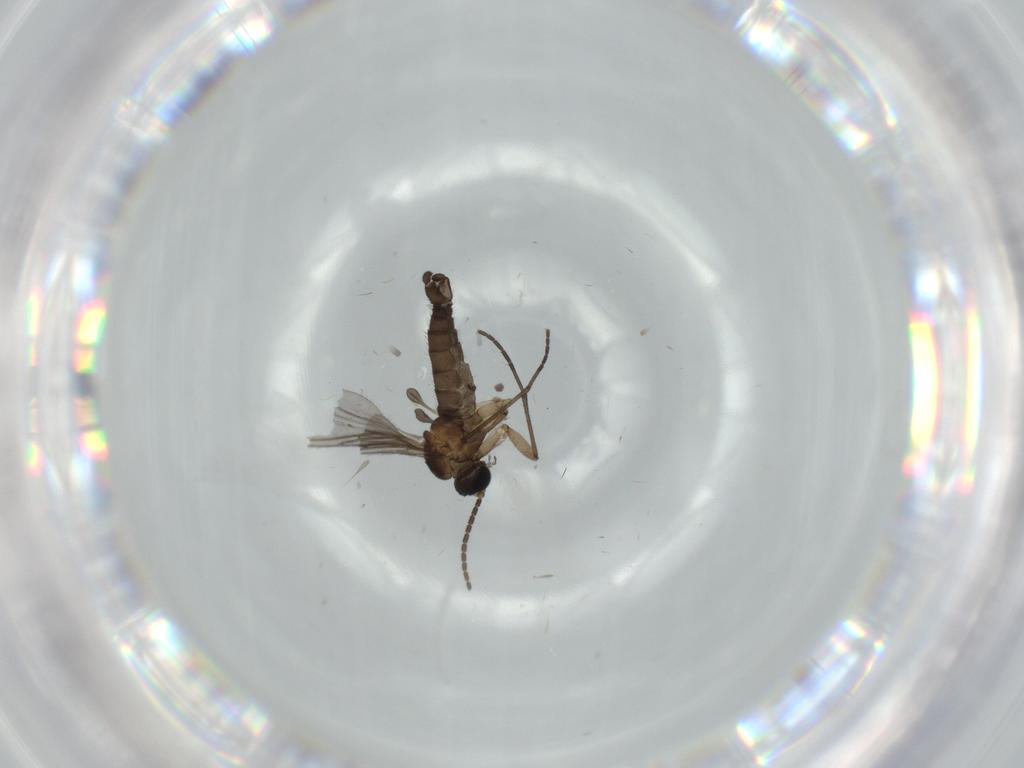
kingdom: Animalia
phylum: Arthropoda
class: Insecta
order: Diptera
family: Sciaridae
